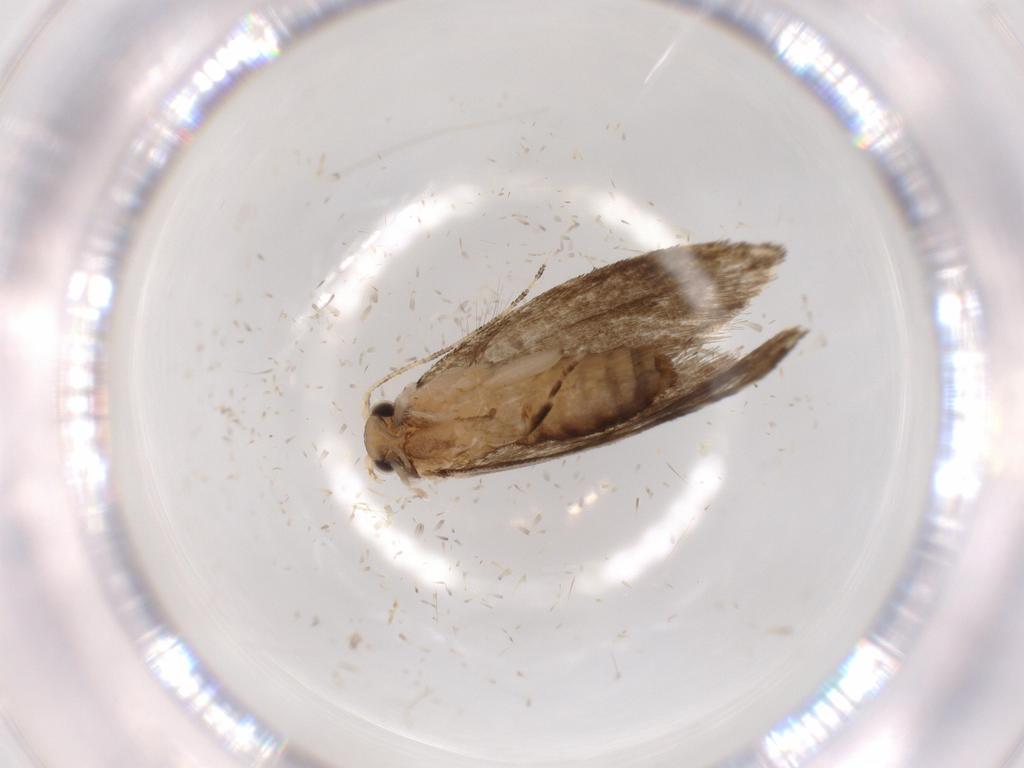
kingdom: Animalia
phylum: Arthropoda
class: Insecta
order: Lepidoptera
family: Tineidae
